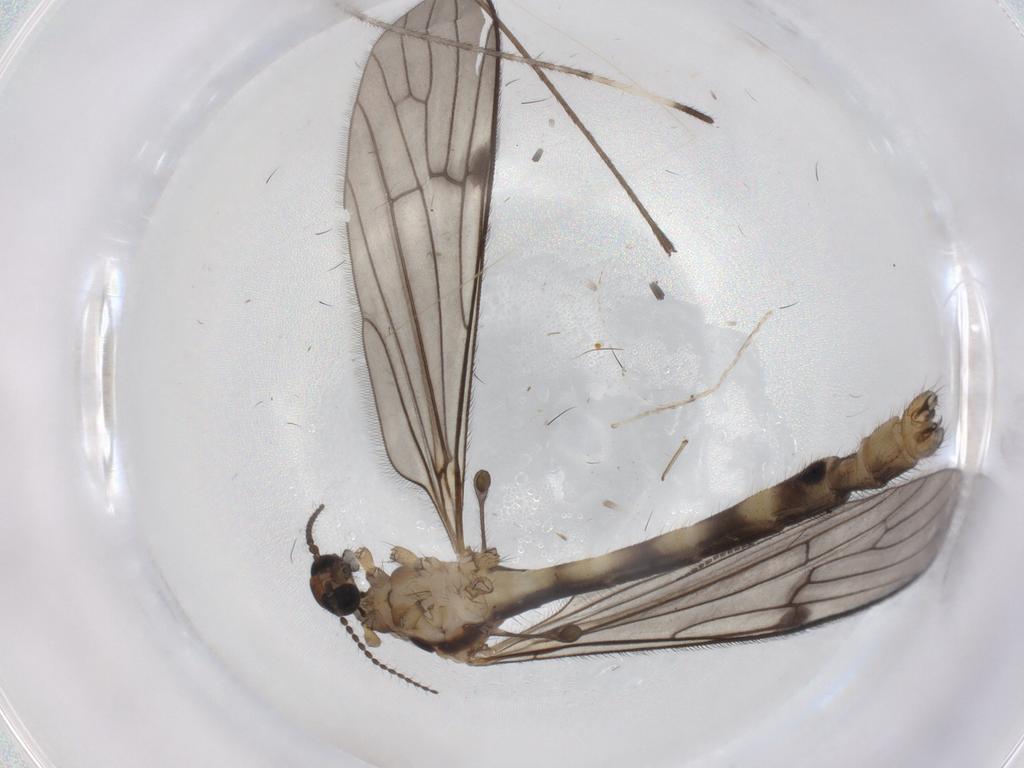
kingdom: Animalia
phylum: Arthropoda
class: Insecta
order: Diptera
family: Limoniidae
